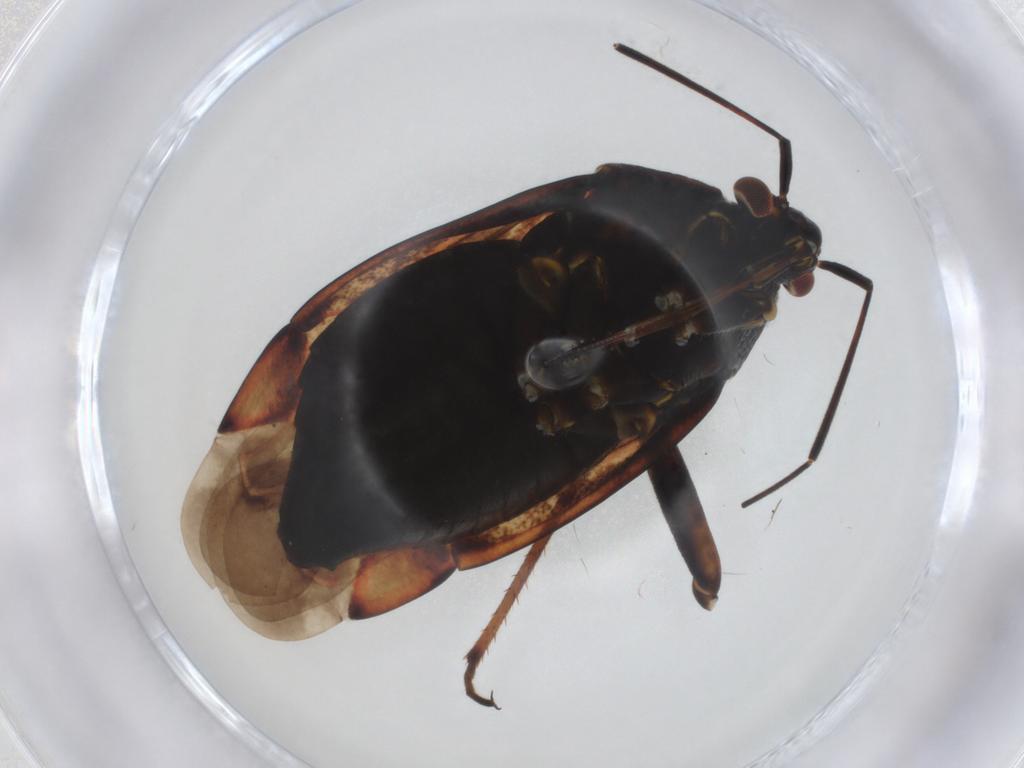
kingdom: Animalia
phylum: Arthropoda
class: Insecta
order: Hemiptera
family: Miridae
